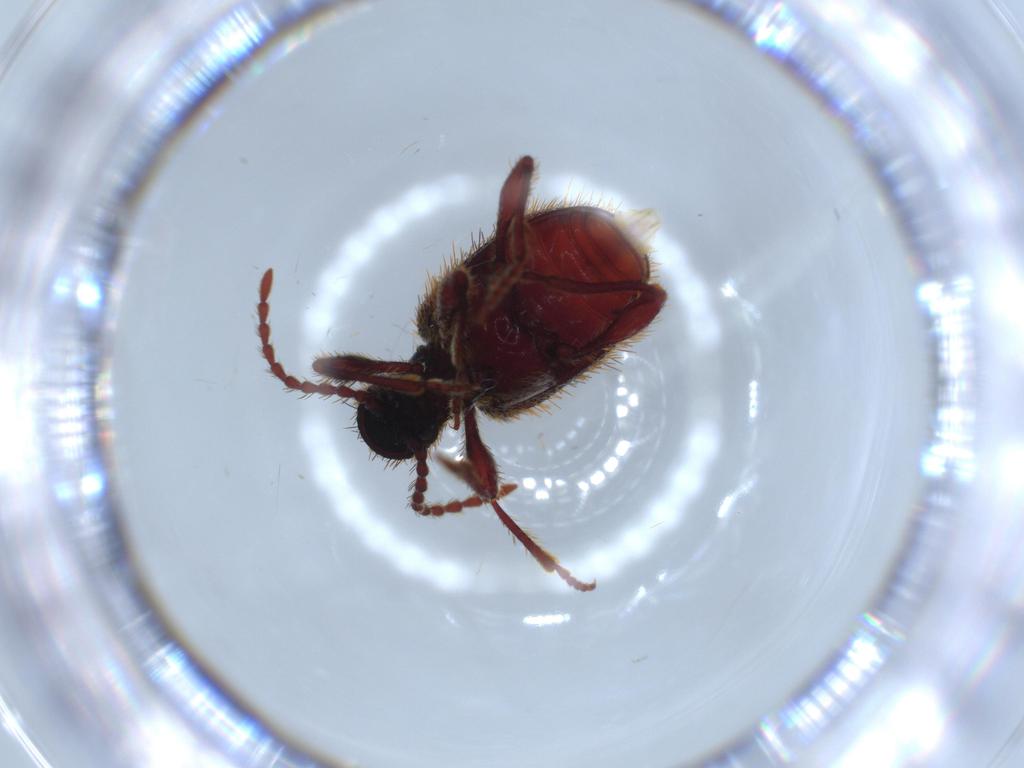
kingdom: Animalia
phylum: Arthropoda
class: Insecta
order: Coleoptera
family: Ptinidae
